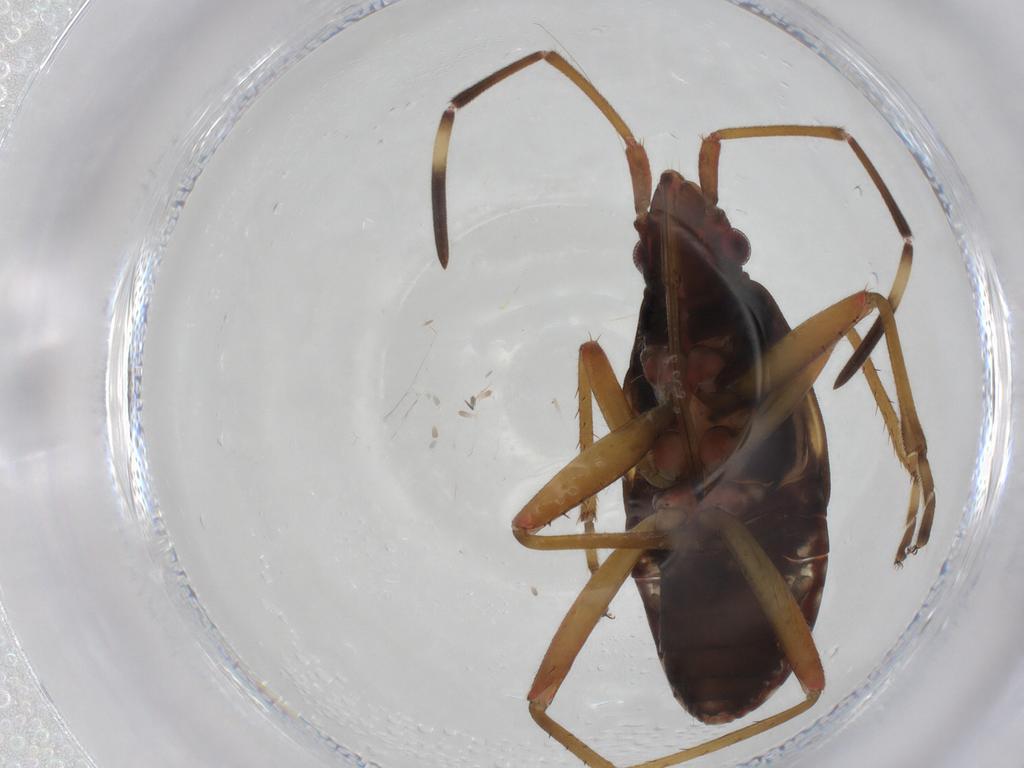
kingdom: Animalia
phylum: Arthropoda
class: Insecta
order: Hemiptera
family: Rhyparochromidae
